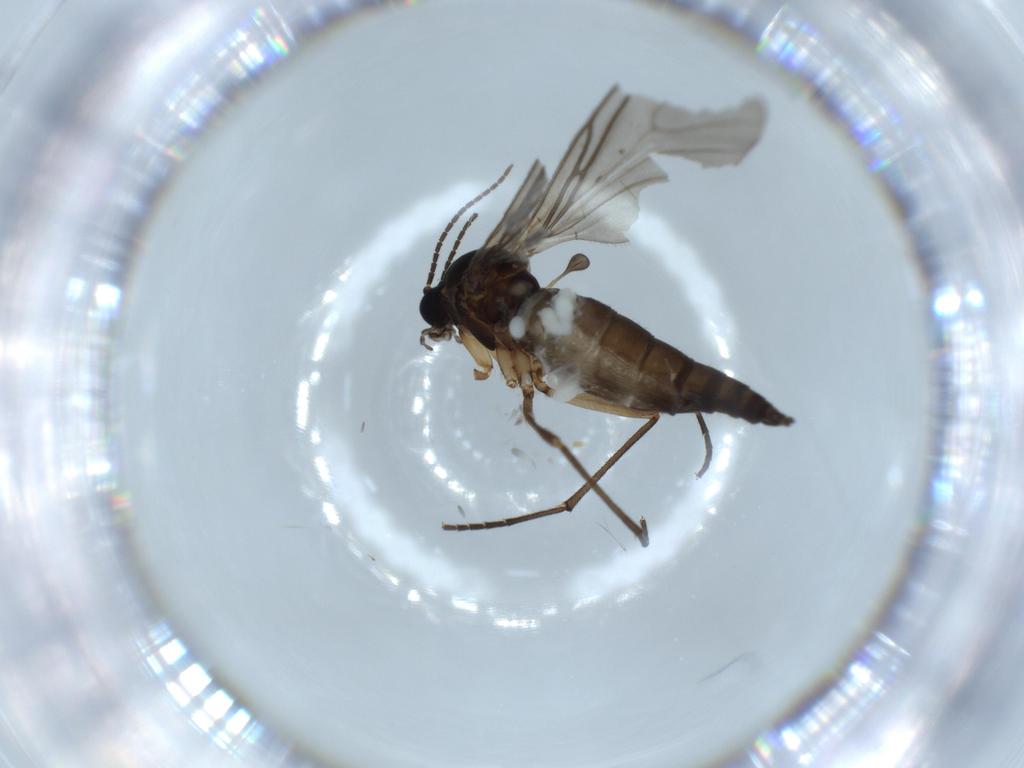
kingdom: Animalia
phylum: Arthropoda
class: Insecta
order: Diptera
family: Sciaridae
